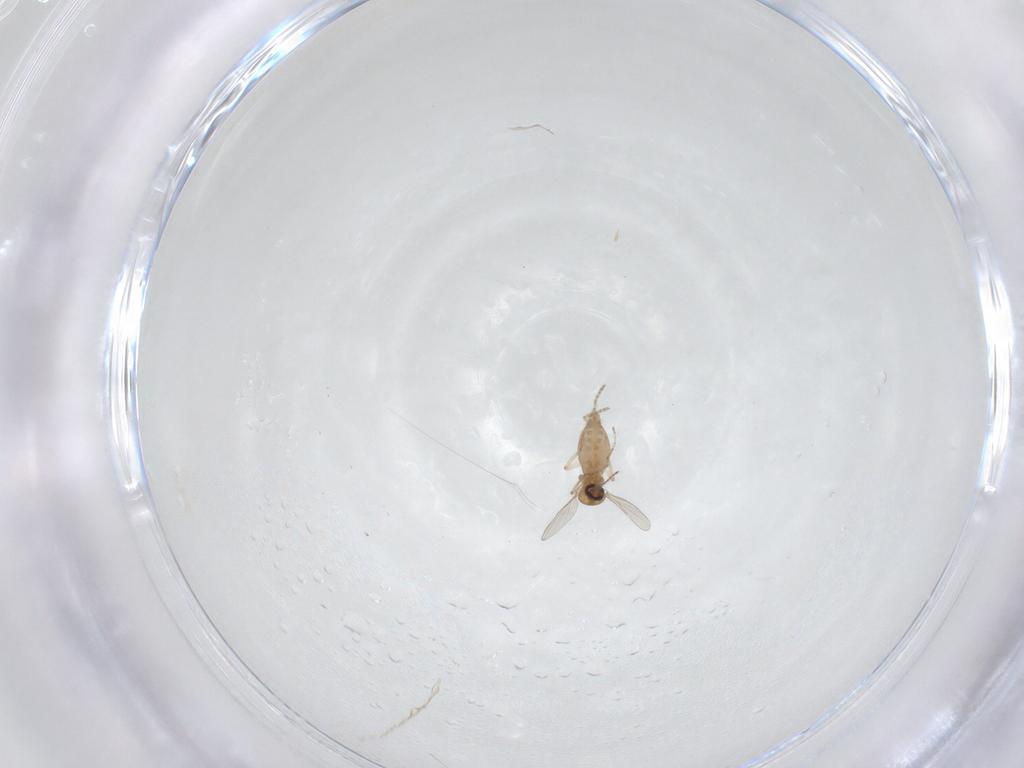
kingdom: Animalia
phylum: Arthropoda
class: Insecta
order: Diptera
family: Ceratopogonidae
